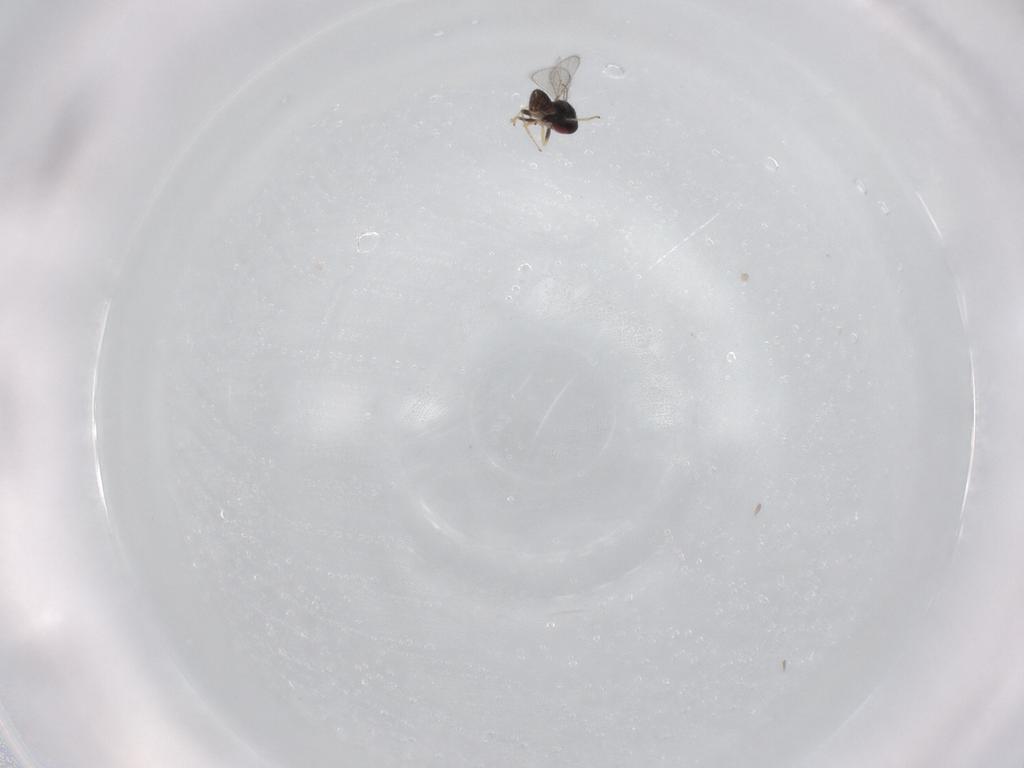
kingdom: Animalia
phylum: Arthropoda
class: Insecta
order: Hymenoptera
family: Eulophidae
